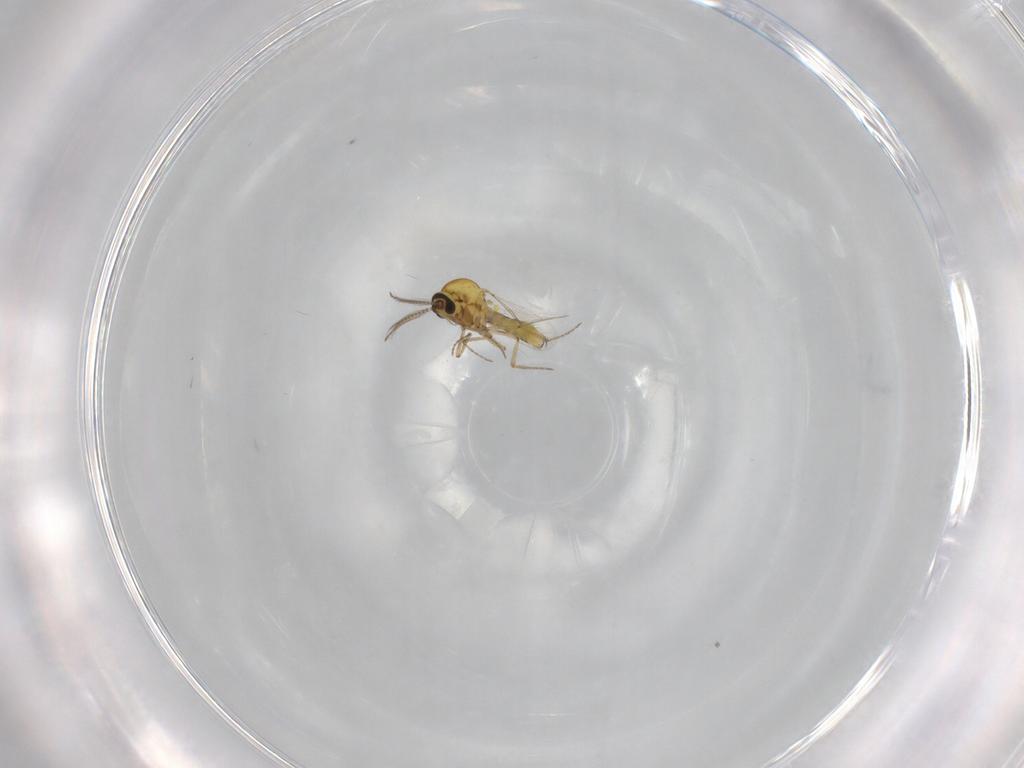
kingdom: Animalia
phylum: Arthropoda
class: Insecta
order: Diptera
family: Ceratopogonidae
